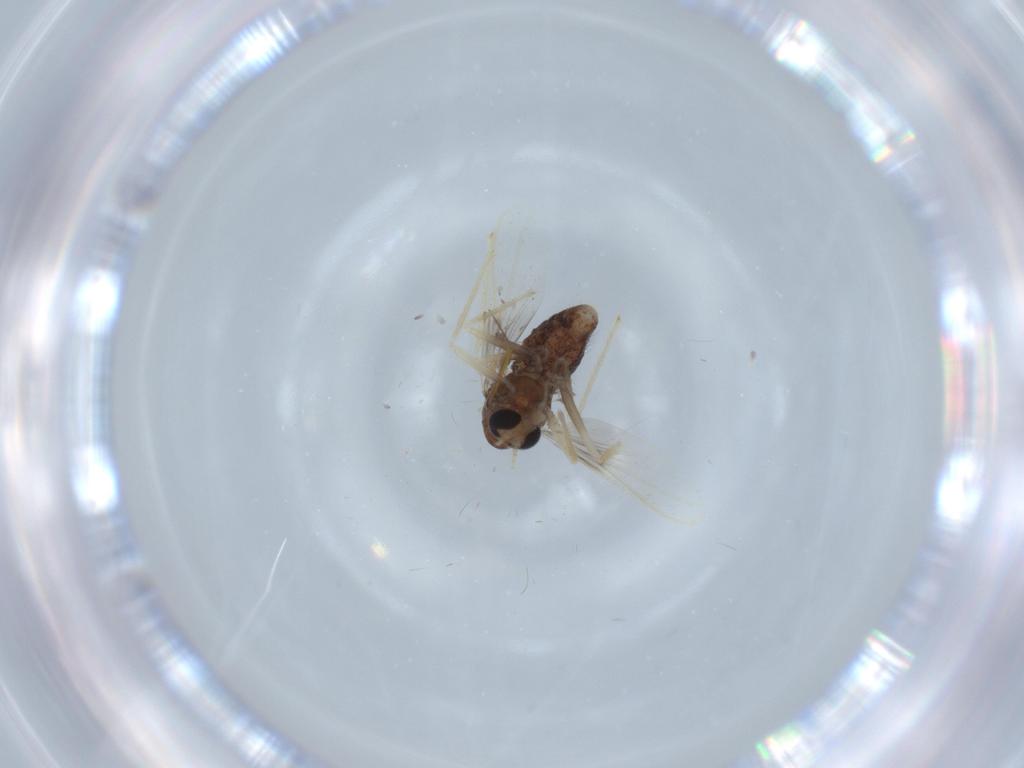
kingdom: Animalia
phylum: Arthropoda
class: Insecta
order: Diptera
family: Chironomidae
